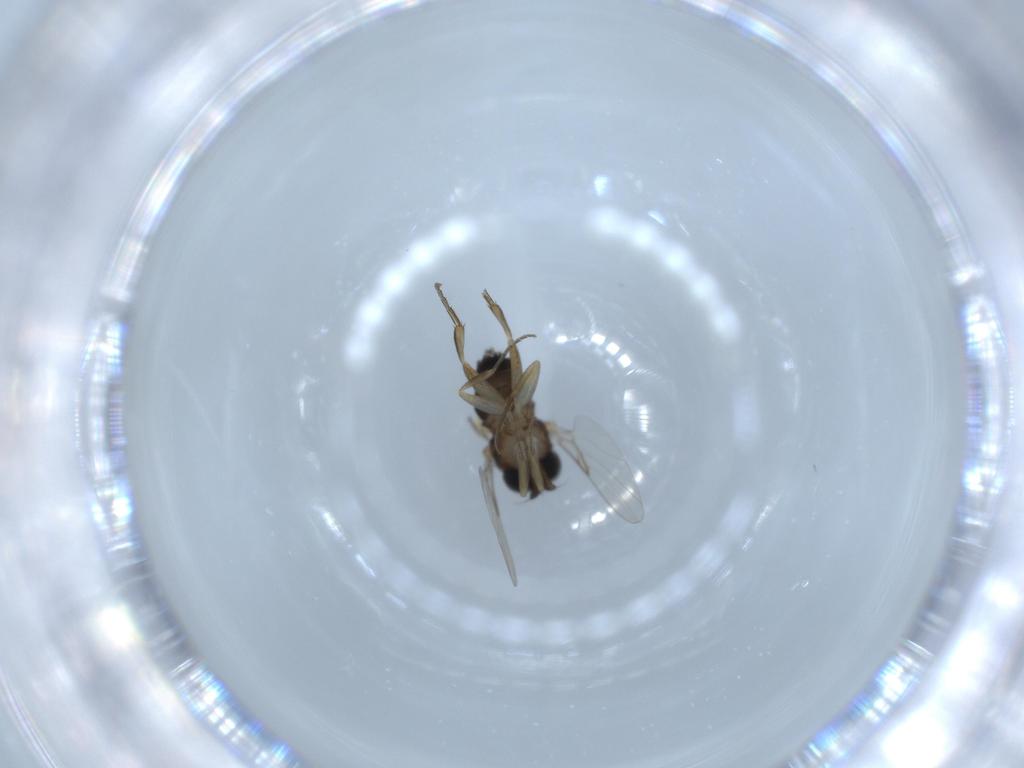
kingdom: Animalia
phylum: Arthropoda
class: Insecta
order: Diptera
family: Phoridae
